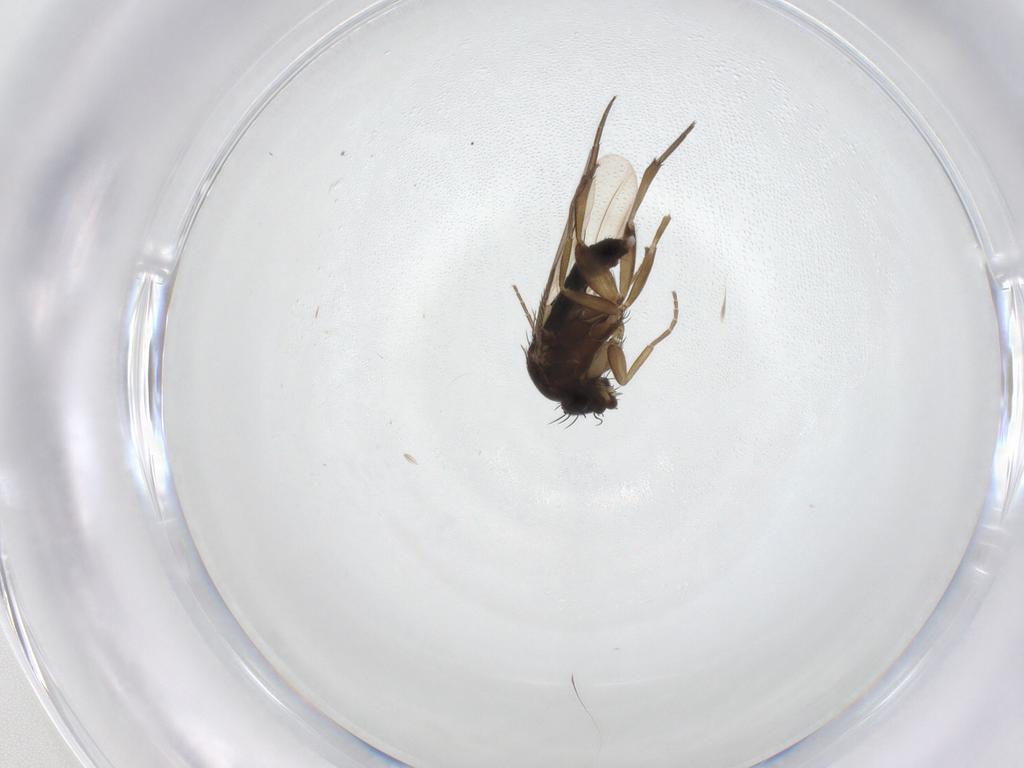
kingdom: Animalia
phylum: Arthropoda
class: Insecta
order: Diptera
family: Phoridae
